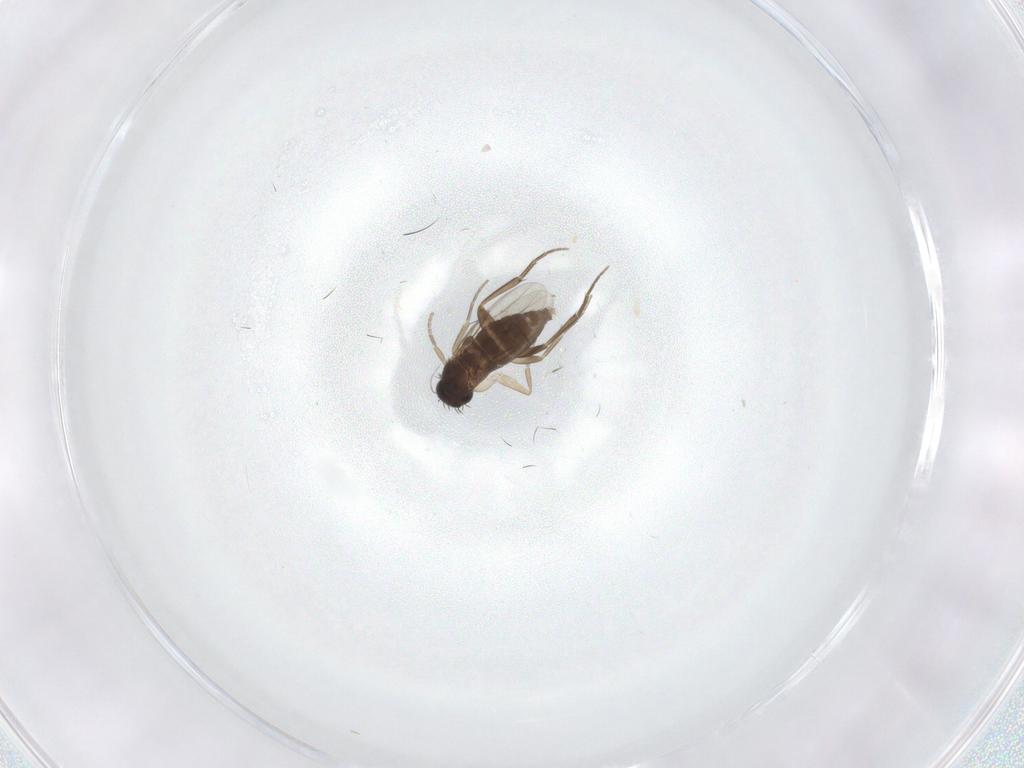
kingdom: Animalia
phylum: Arthropoda
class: Insecta
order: Diptera
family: Phoridae
